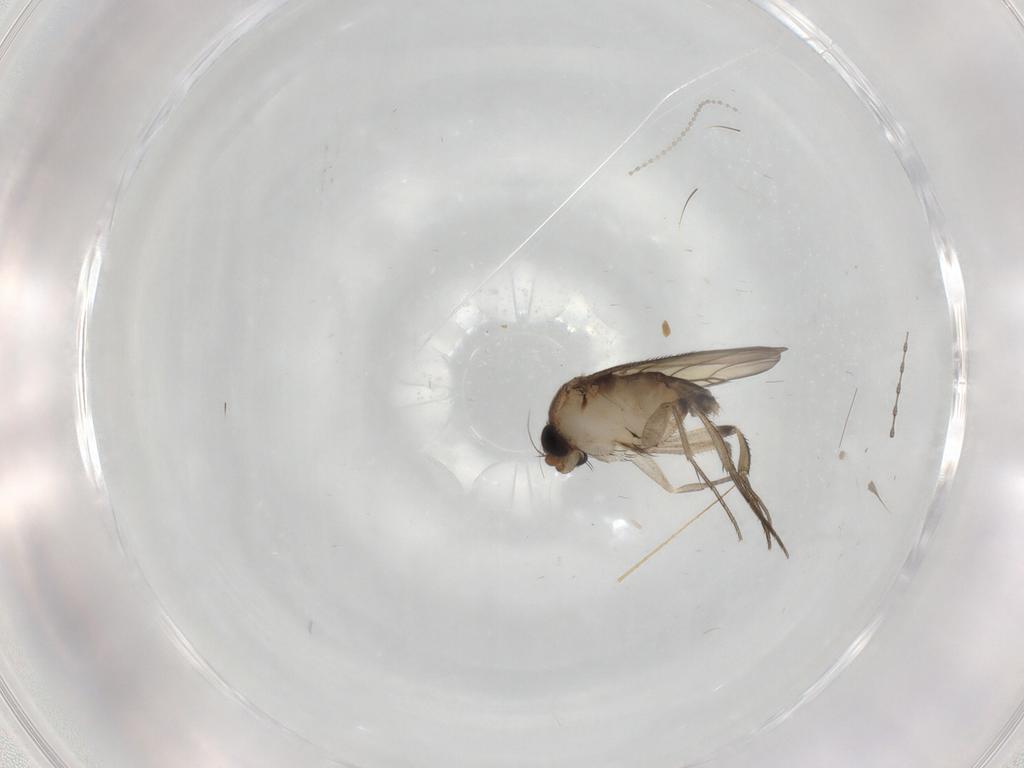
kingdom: Animalia
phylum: Arthropoda
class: Insecta
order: Diptera
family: Phoridae
